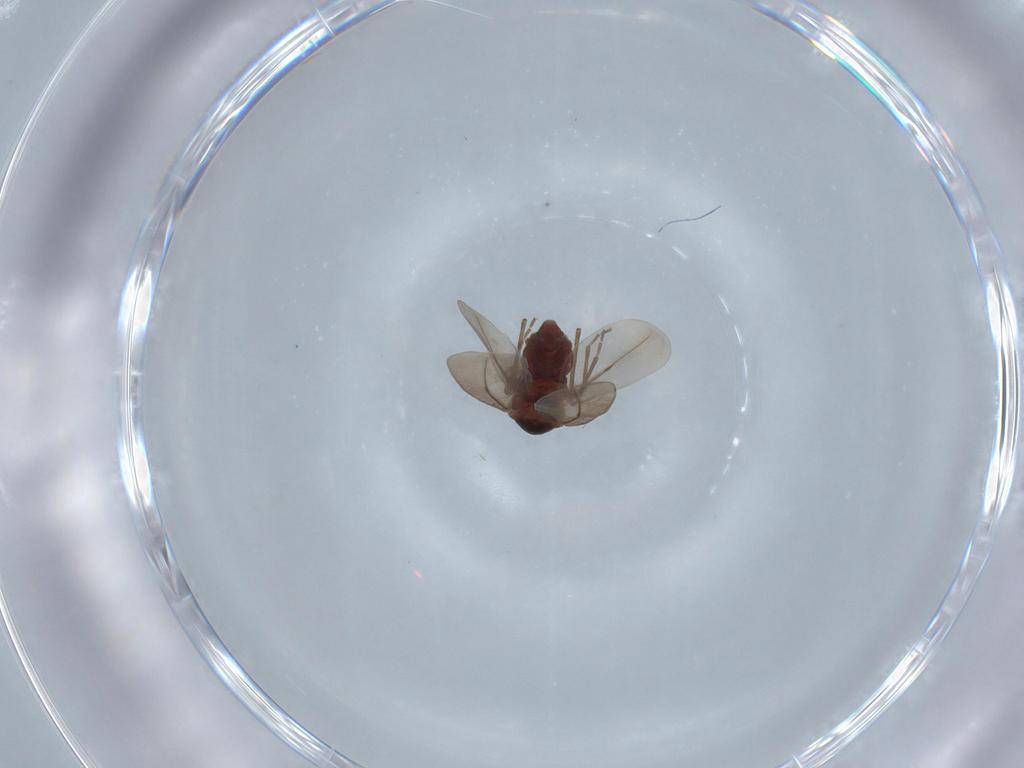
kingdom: Animalia
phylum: Arthropoda
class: Insecta
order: Hemiptera
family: Aleyrodidae
